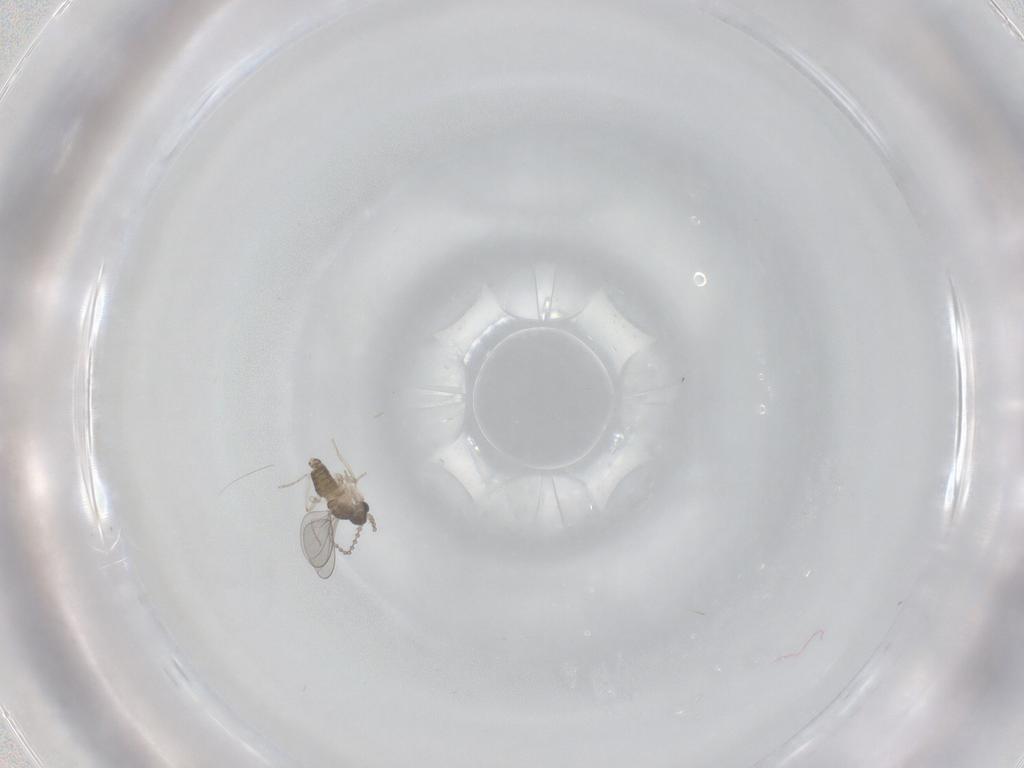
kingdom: Animalia
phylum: Arthropoda
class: Insecta
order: Diptera
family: Cecidomyiidae
